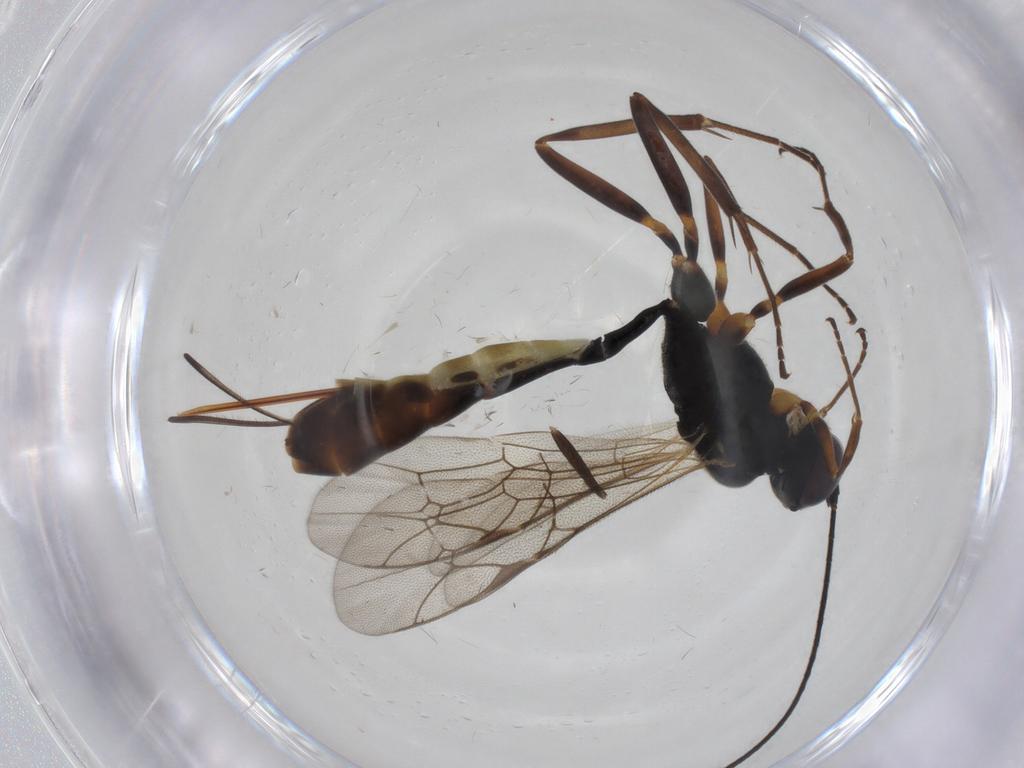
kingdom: Animalia
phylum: Arthropoda
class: Insecta
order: Hymenoptera
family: Ichneumonidae
